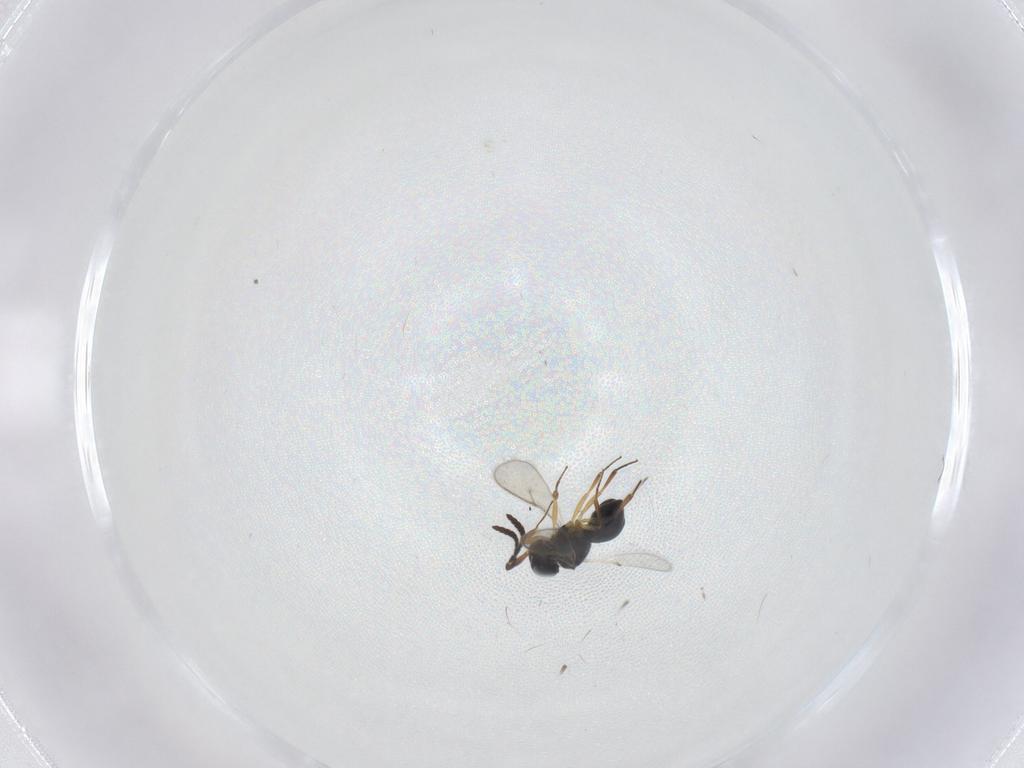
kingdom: Animalia
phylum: Arthropoda
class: Insecta
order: Hymenoptera
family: Scelionidae
